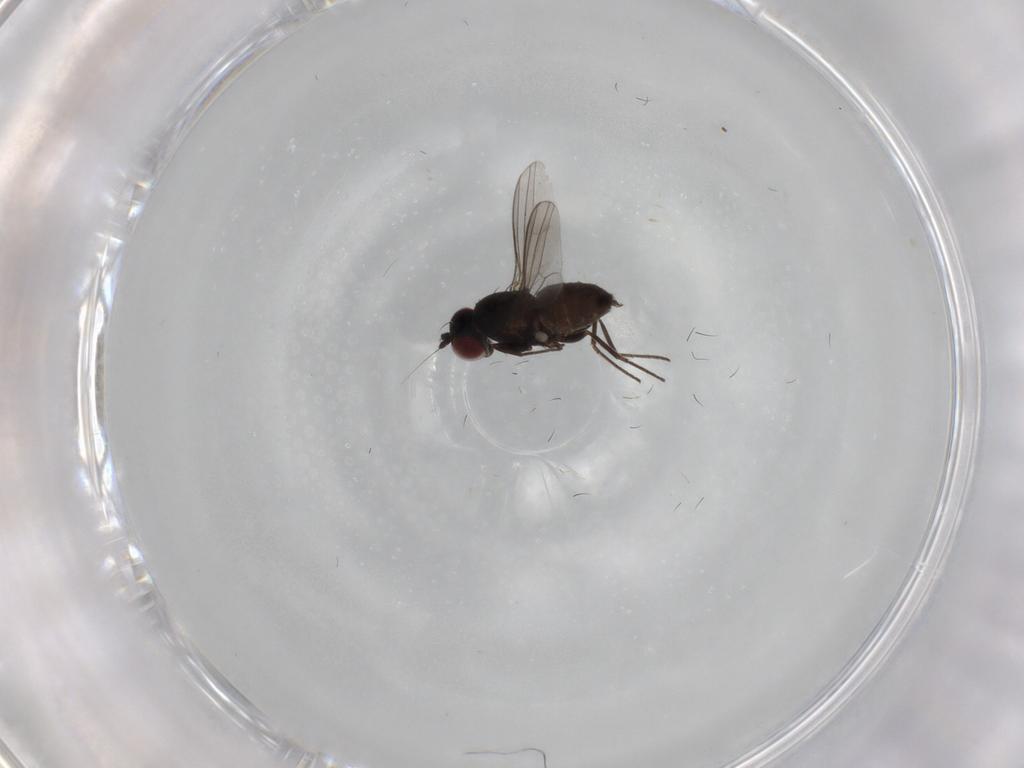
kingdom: Animalia
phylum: Arthropoda
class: Insecta
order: Diptera
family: Dolichopodidae
